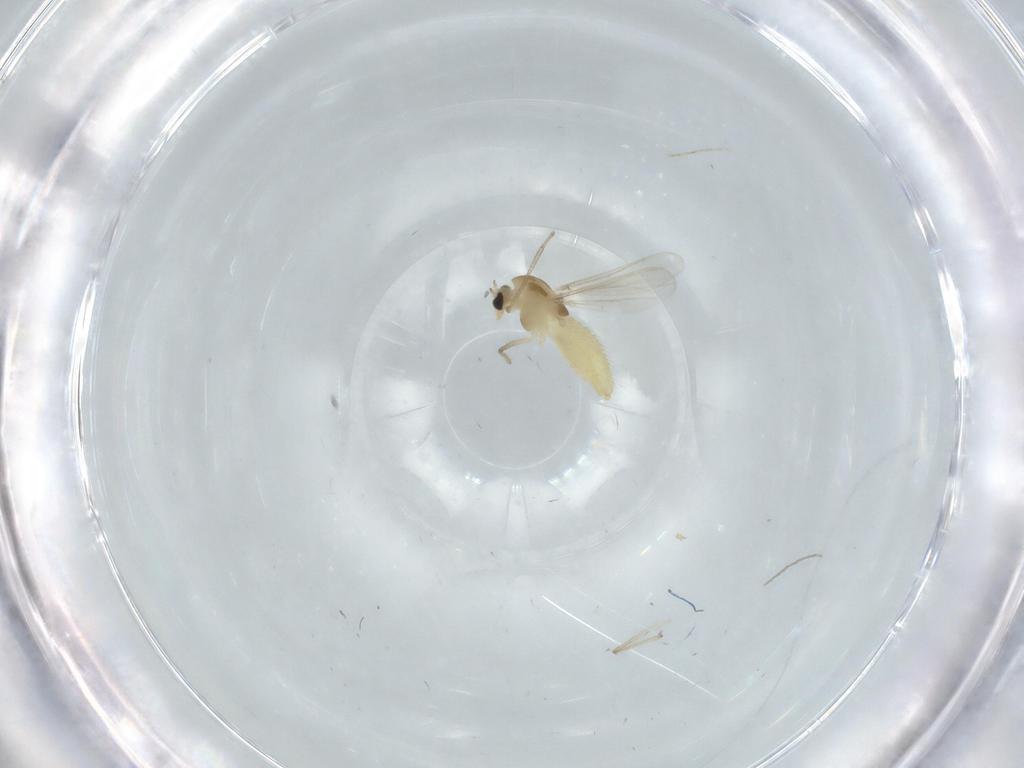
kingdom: Animalia
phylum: Arthropoda
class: Insecta
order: Diptera
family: Chironomidae
